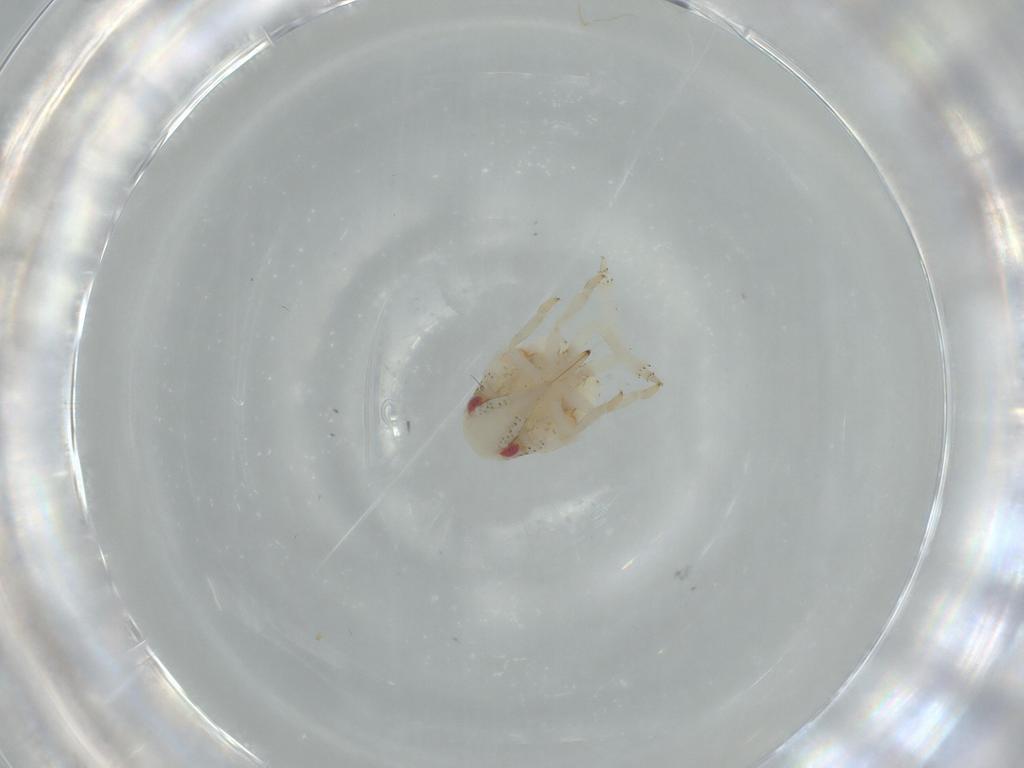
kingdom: Animalia
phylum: Arthropoda
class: Insecta
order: Hemiptera
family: Acanaloniidae
